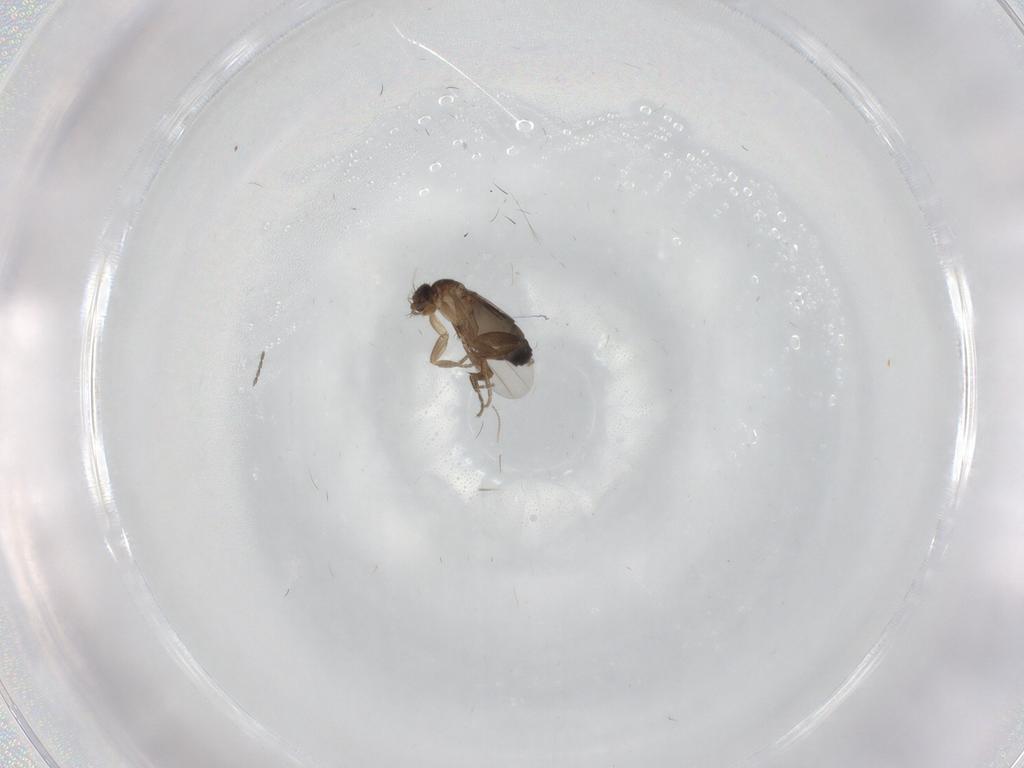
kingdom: Animalia
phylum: Arthropoda
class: Insecta
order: Diptera
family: Phoridae
